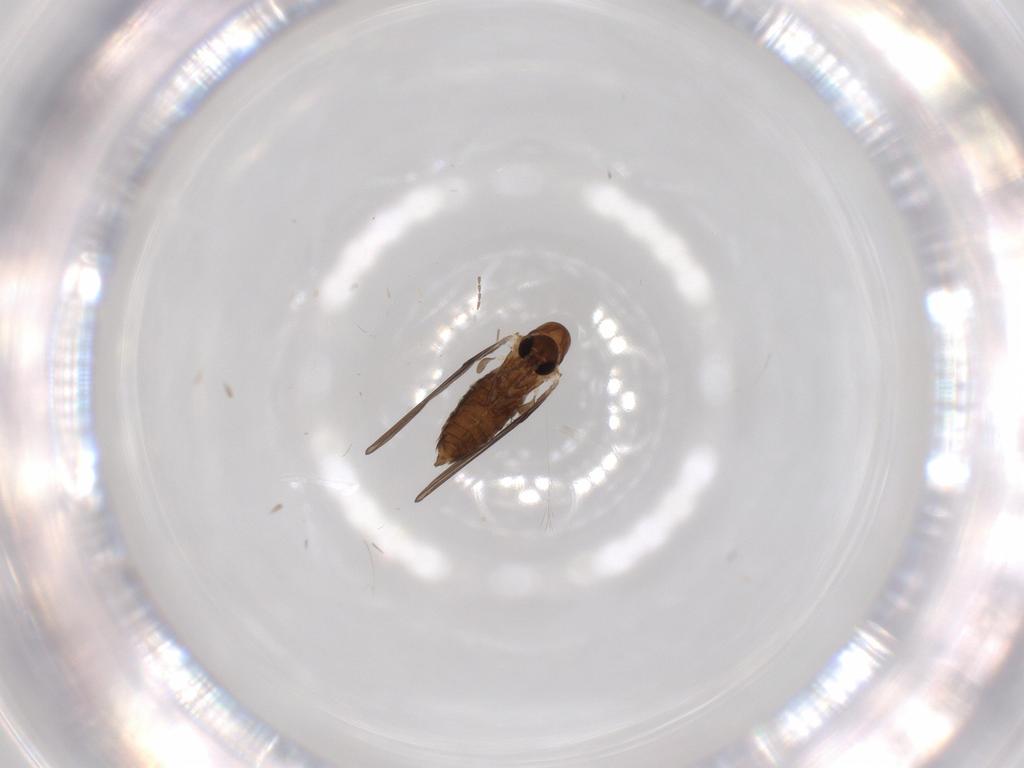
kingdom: Animalia
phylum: Arthropoda
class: Insecta
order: Diptera
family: Psychodidae
